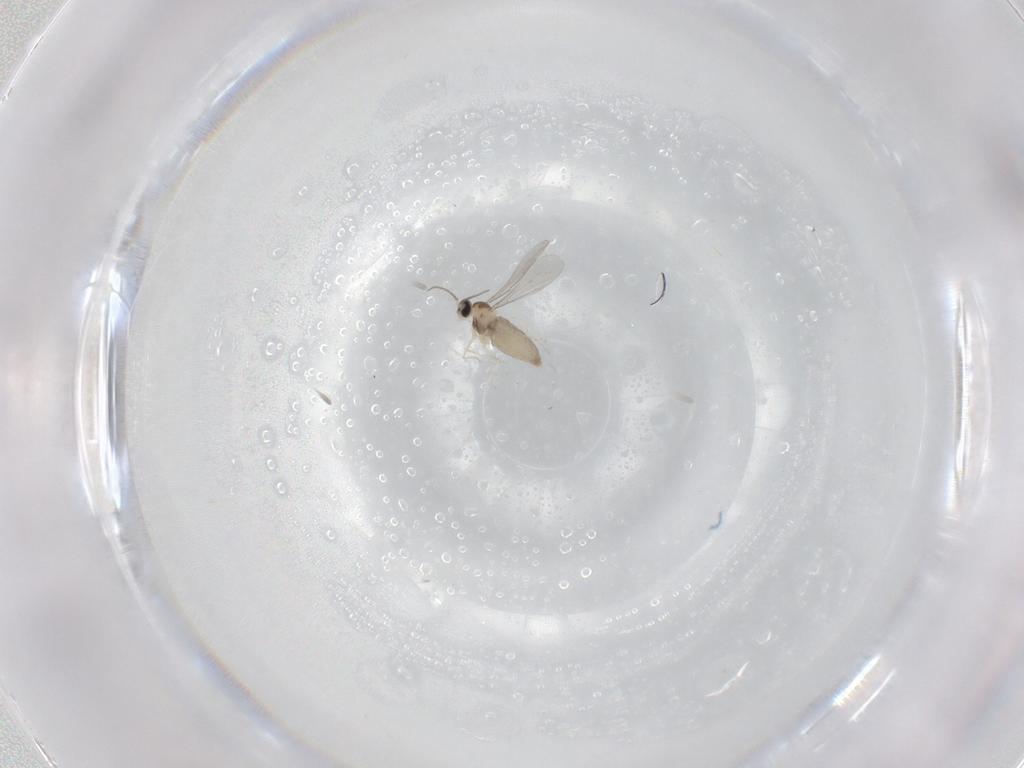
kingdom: Animalia
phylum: Arthropoda
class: Insecta
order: Diptera
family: Cecidomyiidae
